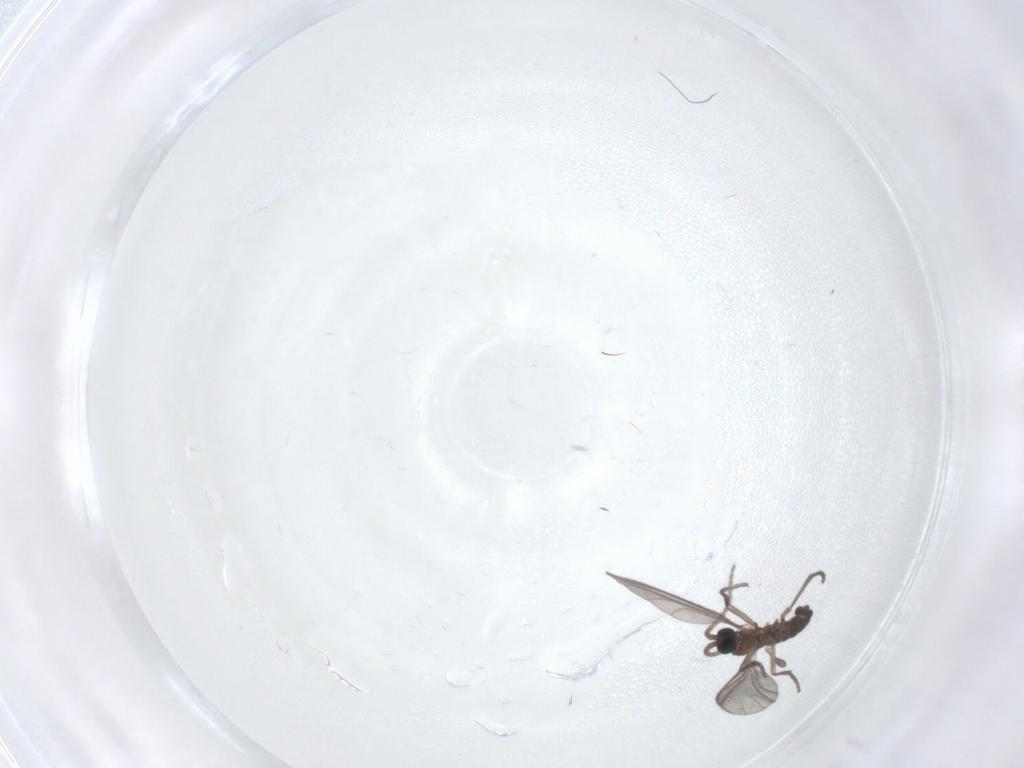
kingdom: Animalia
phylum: Arthropoda
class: Insecta
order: Diptera
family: Sciaridae
